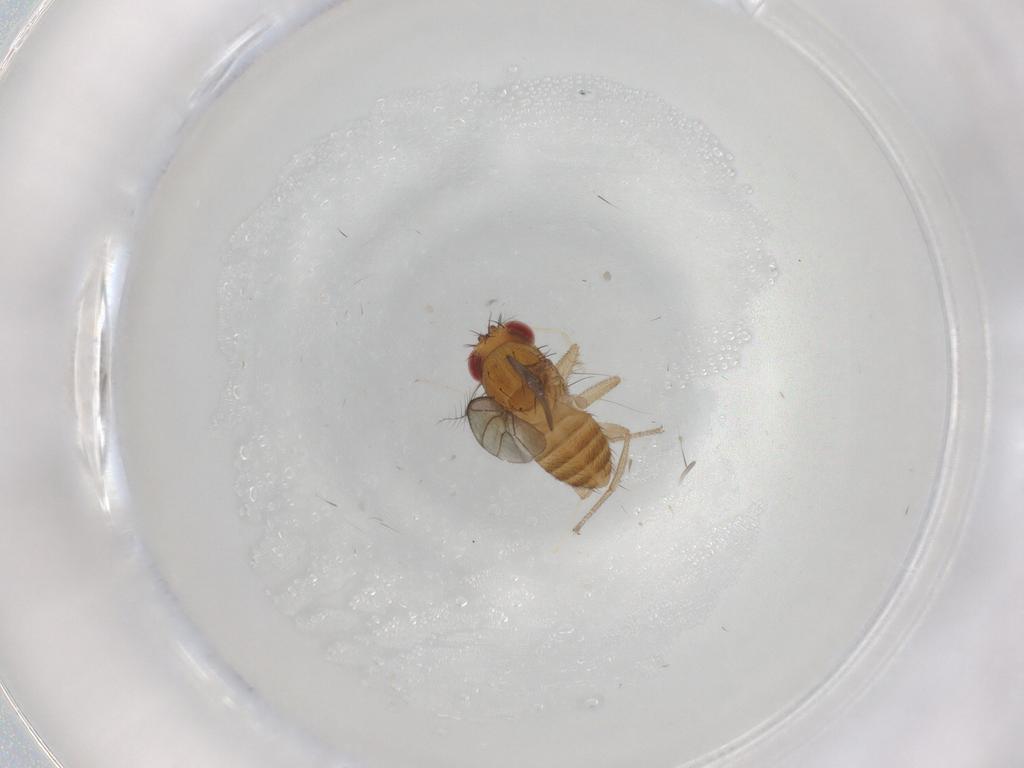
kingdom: Animalia
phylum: Arthropoda
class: Insecta
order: Diptera
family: Drosophilidae
